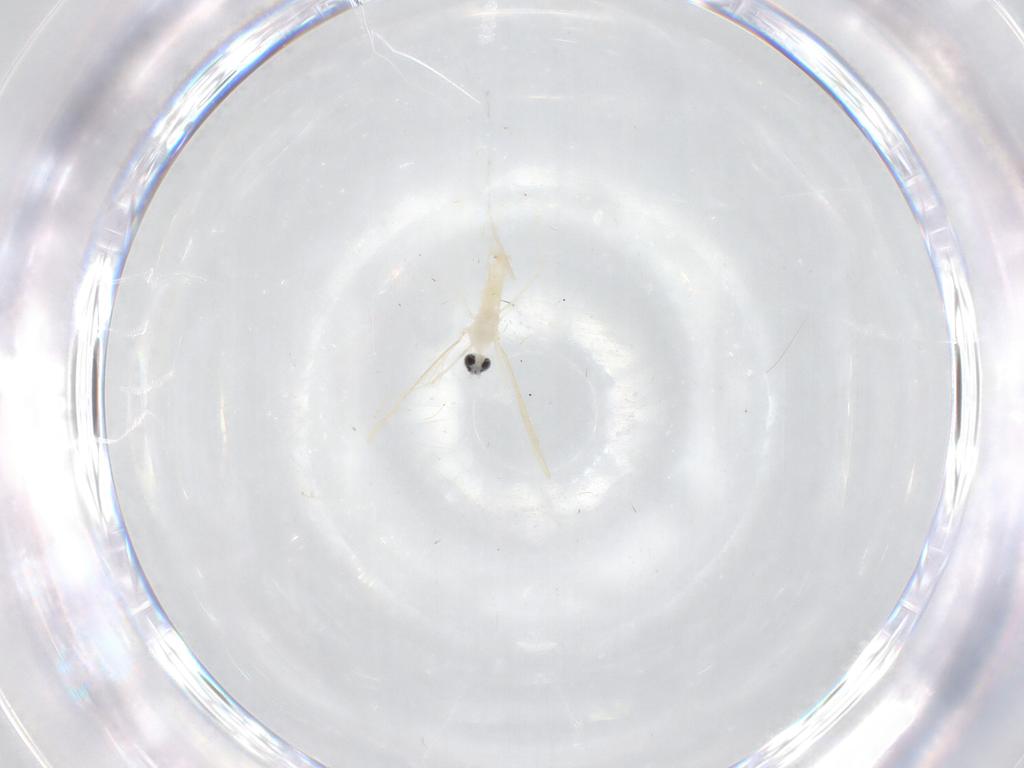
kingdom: Animalia
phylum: Arthropoda
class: Insecta
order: Diptera
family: Cecidomyiidae
